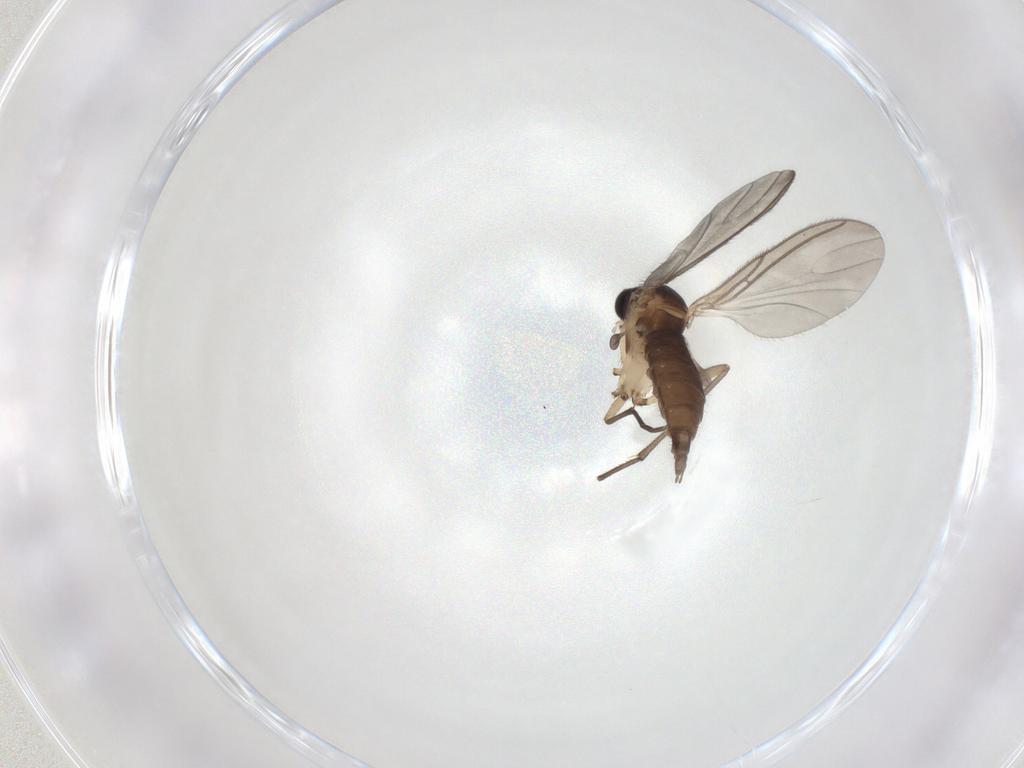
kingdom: Animalia
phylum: Arthropoda
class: Insecta
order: Diptera
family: Sciaridae
